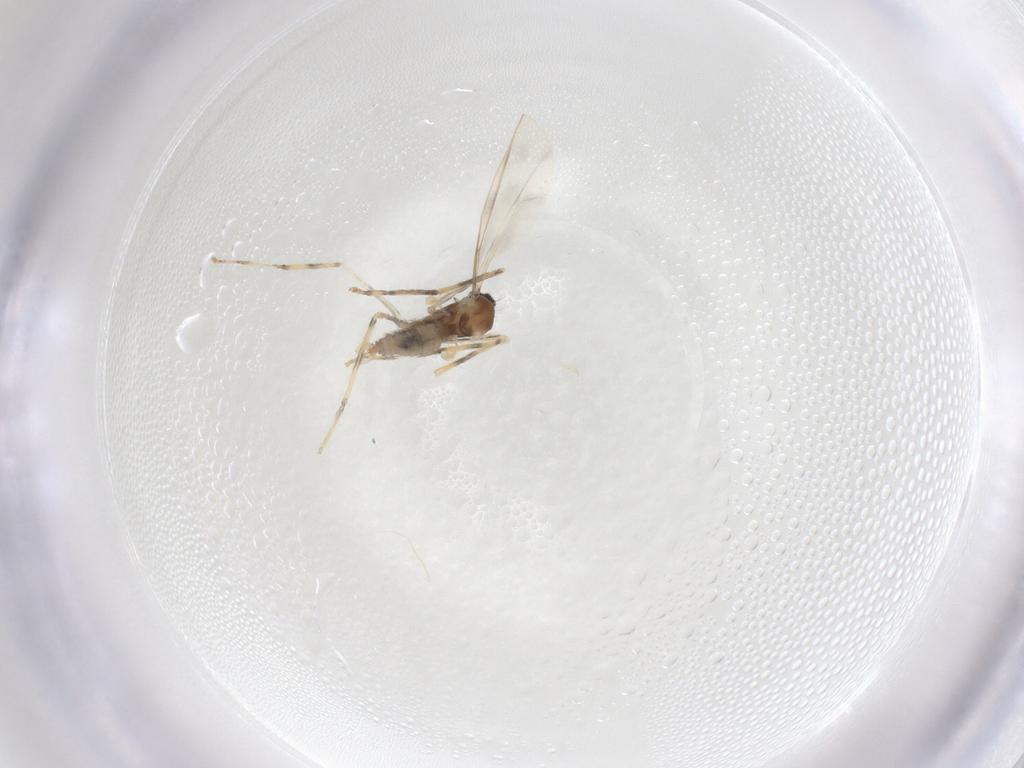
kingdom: Animalia
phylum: Arthropoda
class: Insecta
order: Diptera
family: Cecidomyiidae
